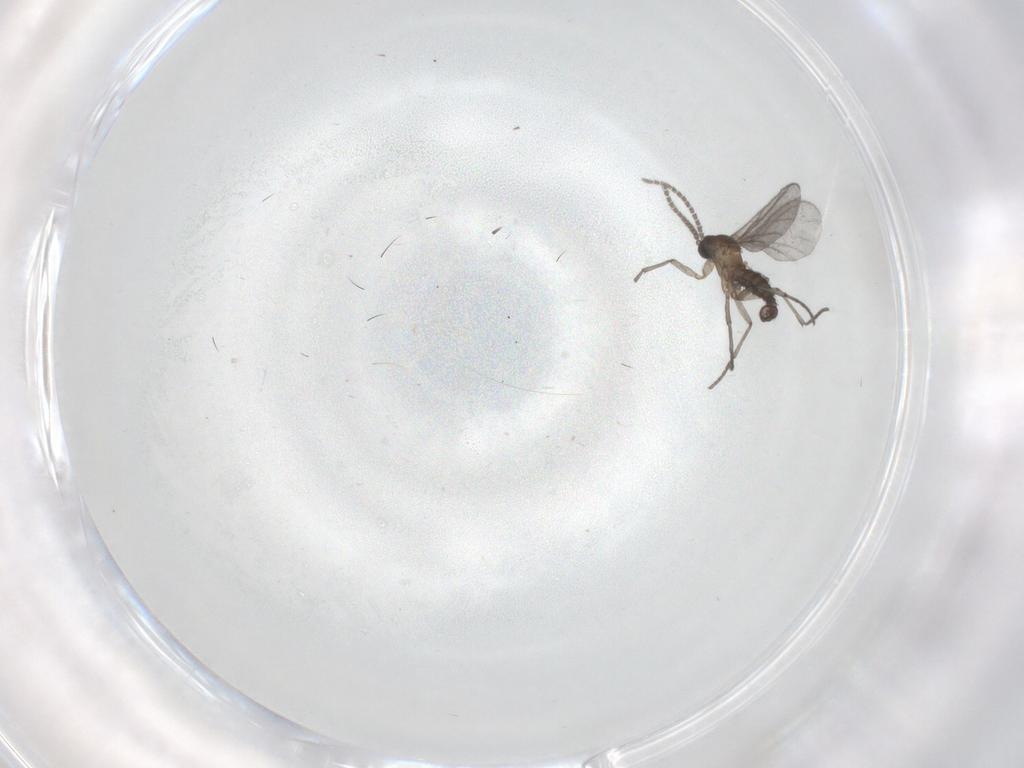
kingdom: Animalia
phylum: Arthropoda
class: Insecta
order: Diptera
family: Sciaridae
